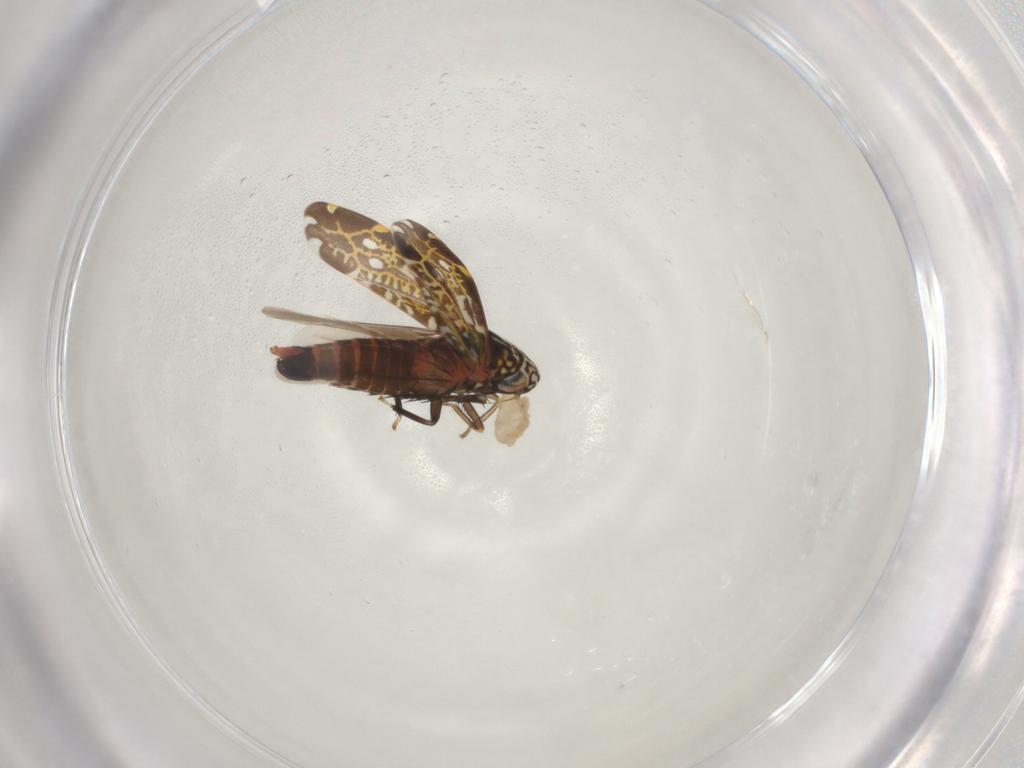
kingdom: Animalia
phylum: Arthropoda
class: Insecta
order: Hemiptera
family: Cicadellidae
